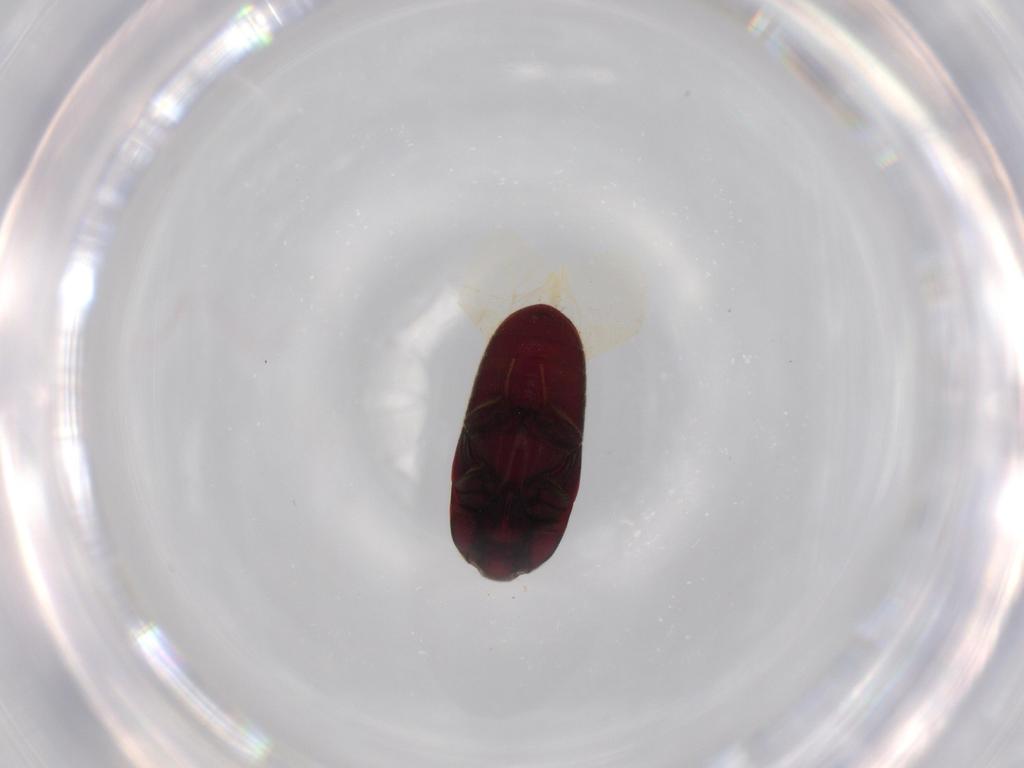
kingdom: Animalia
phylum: Arthropoda
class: Insecta
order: Coleoptera
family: Throscidae
